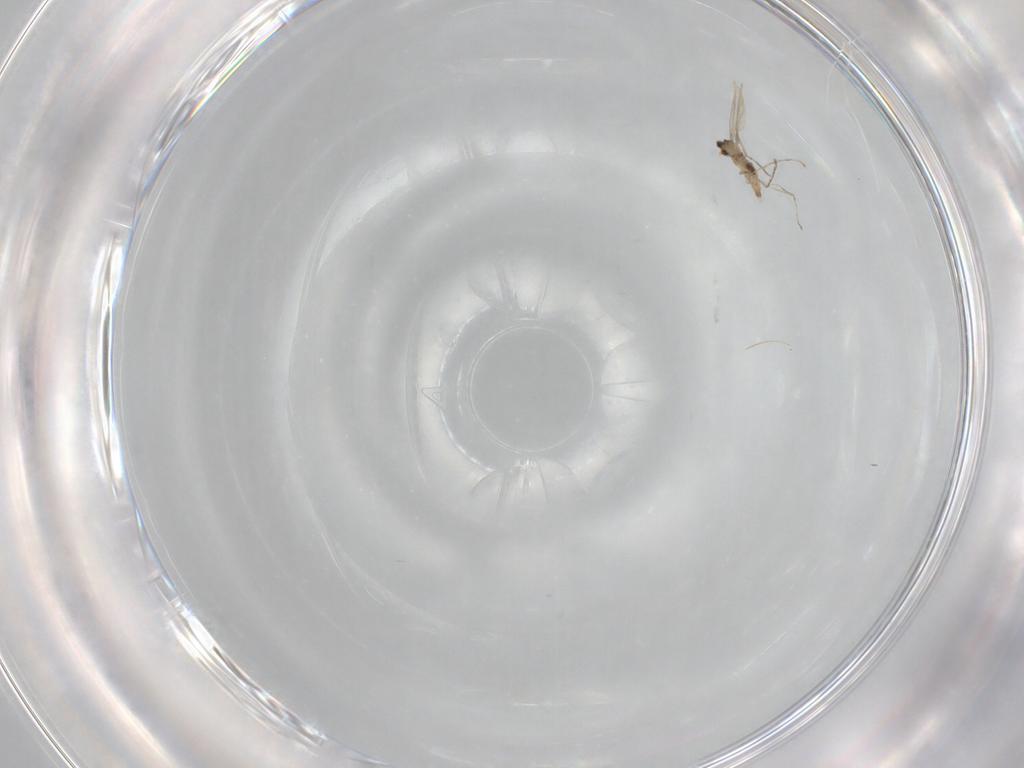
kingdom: Animalia
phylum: Arthropoda
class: Insecta
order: Diptera
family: Cecidomyiidae
